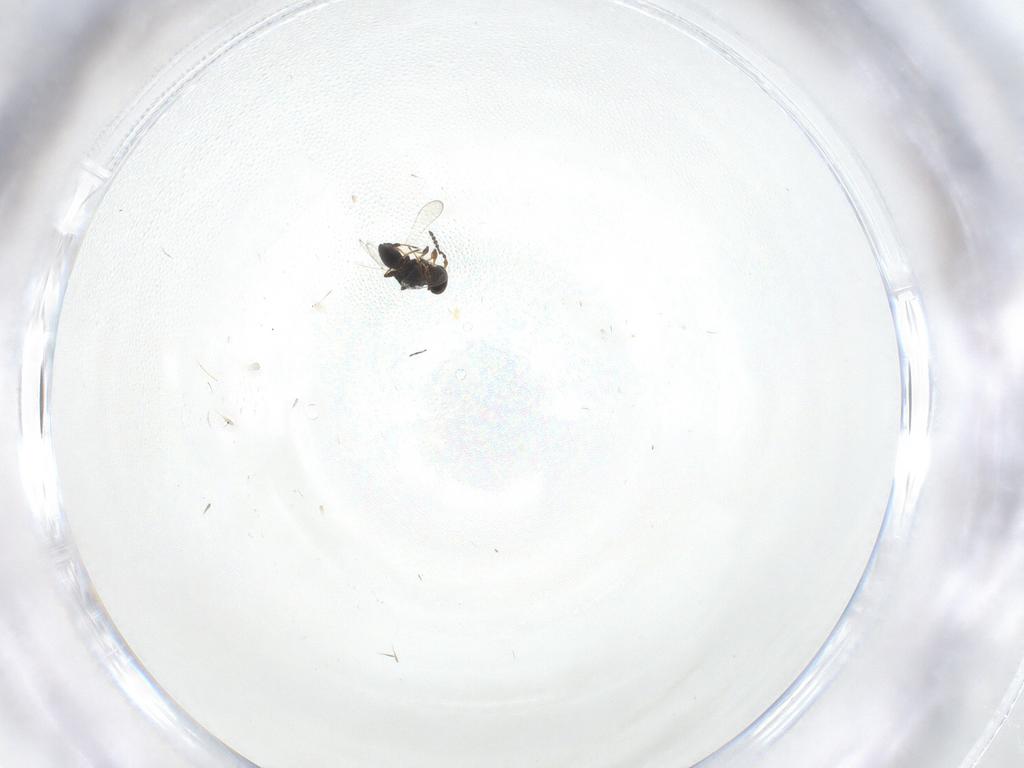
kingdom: Animalia
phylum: Arthropoda
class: Insecta
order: Hymenoptera
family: Platygastridae
